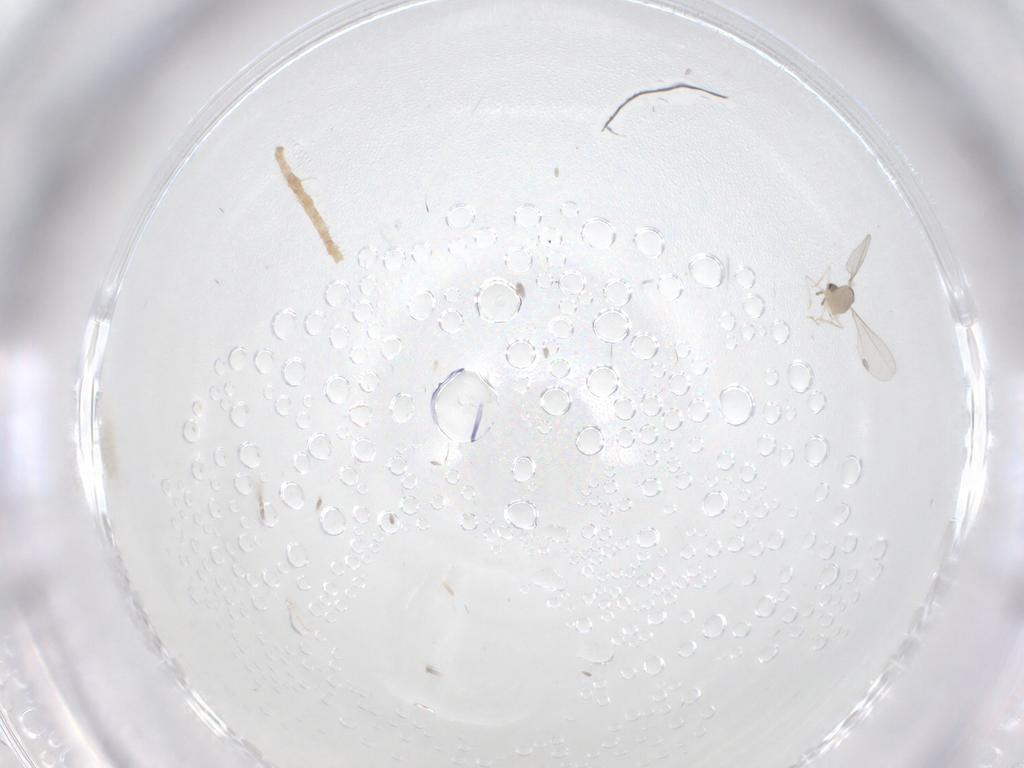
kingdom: Animalia
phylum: Arthropoda
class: Insecta
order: Diptera
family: Cecidomyiidae
